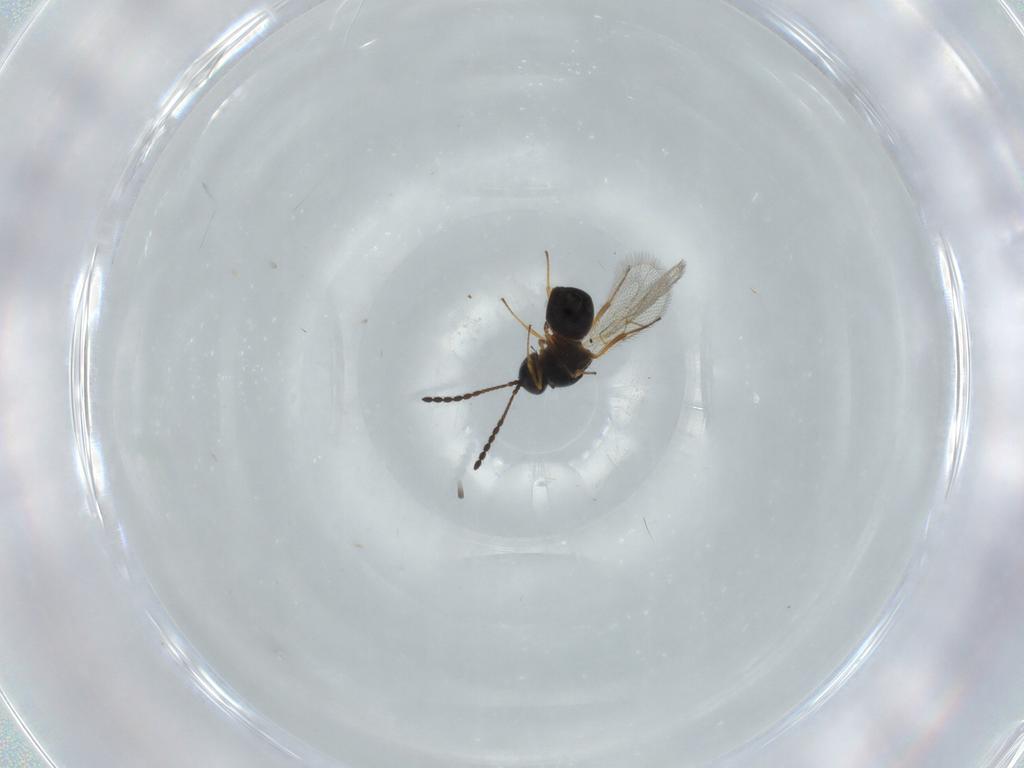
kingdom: Animalia
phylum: Arthropoda
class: Insecta
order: Hymenoptera
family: Figitidae
